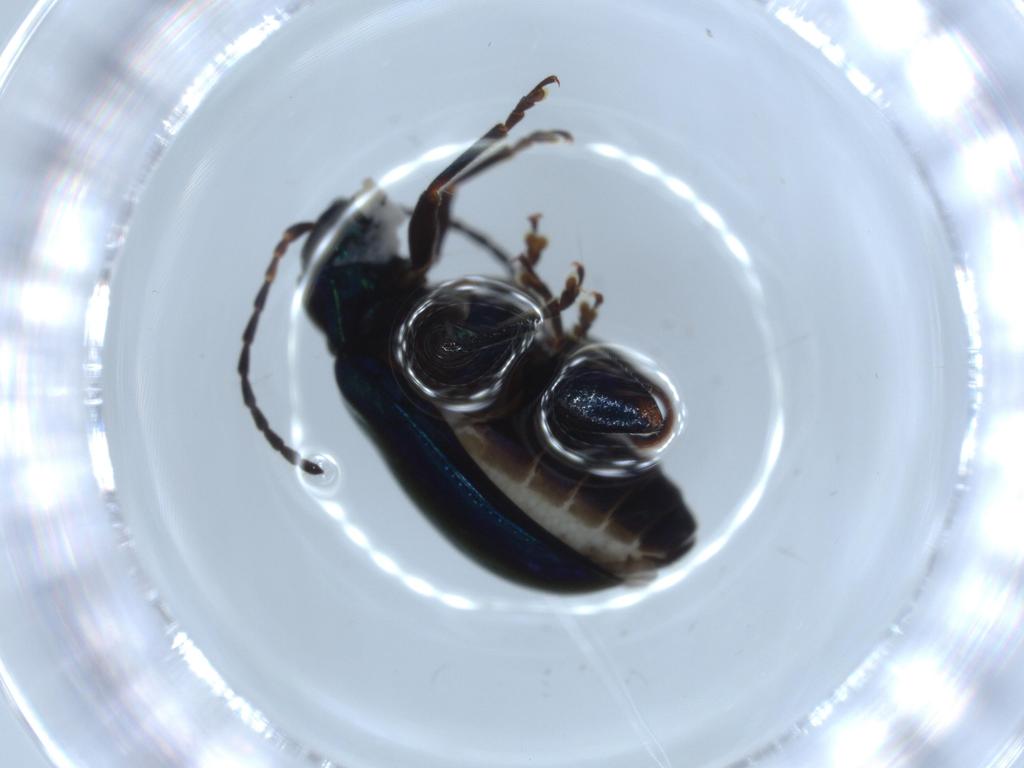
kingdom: Animalia
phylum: Arthropoda
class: Insecta
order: Coleoptera
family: Chrysomelidae
